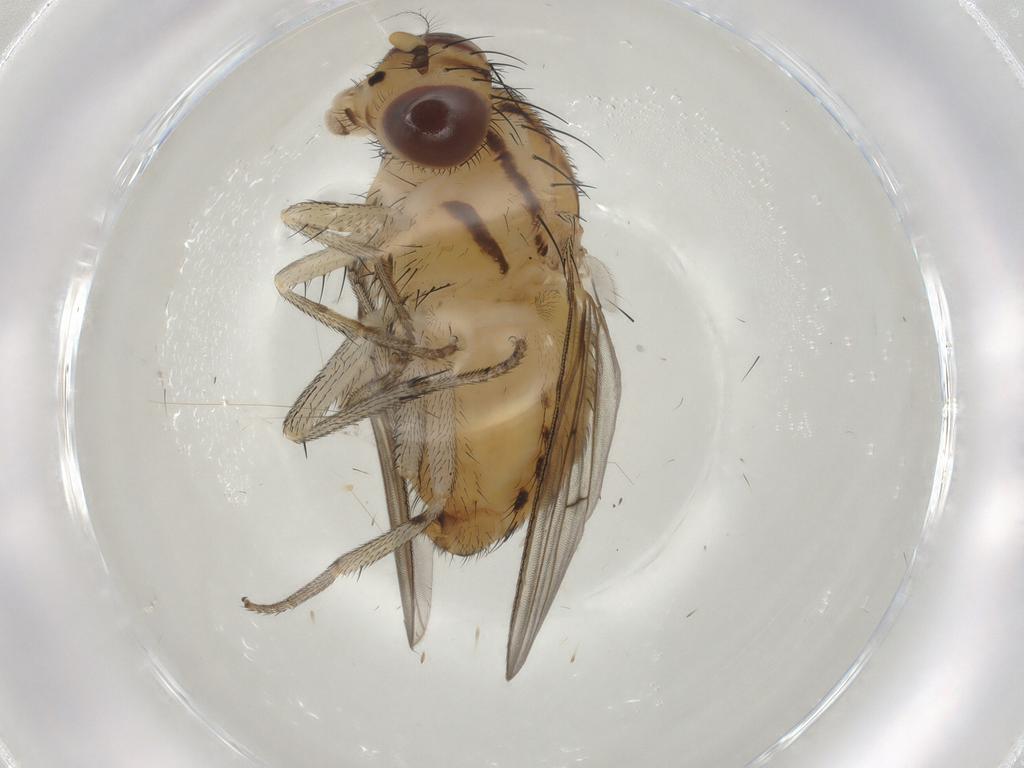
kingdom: Animalia
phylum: Arthropoda
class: Insecta
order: Diptera
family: Lauxaniidae
